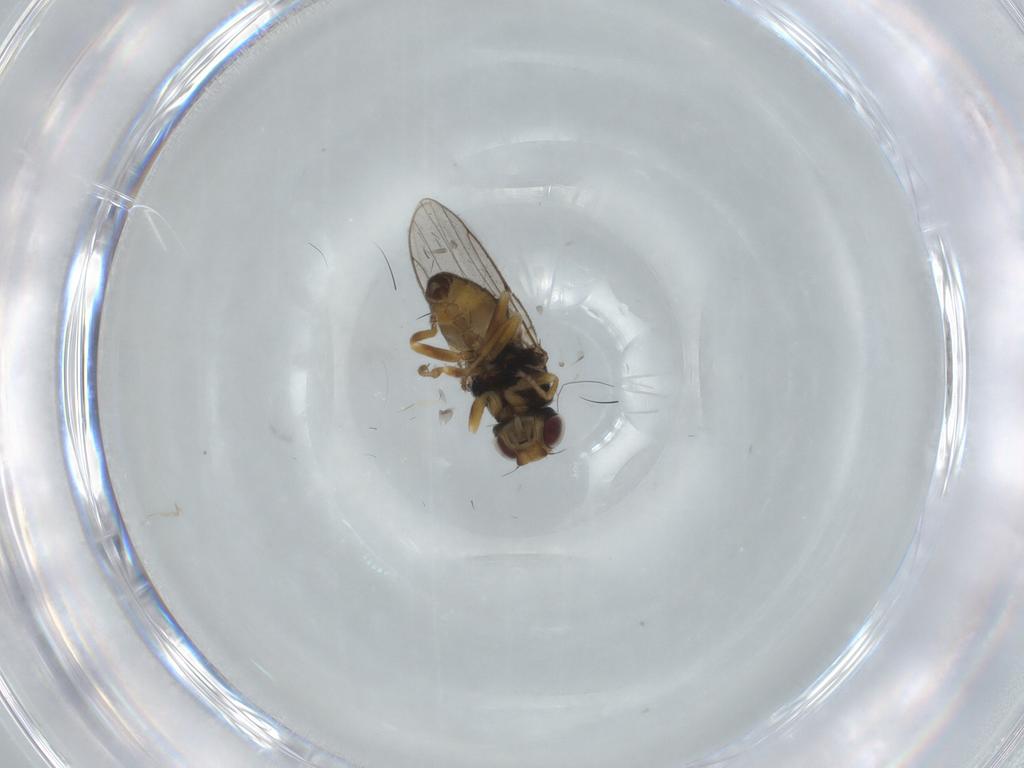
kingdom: Animalia
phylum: Arthropoda
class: Insecta
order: Diptera
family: Chloropidae
